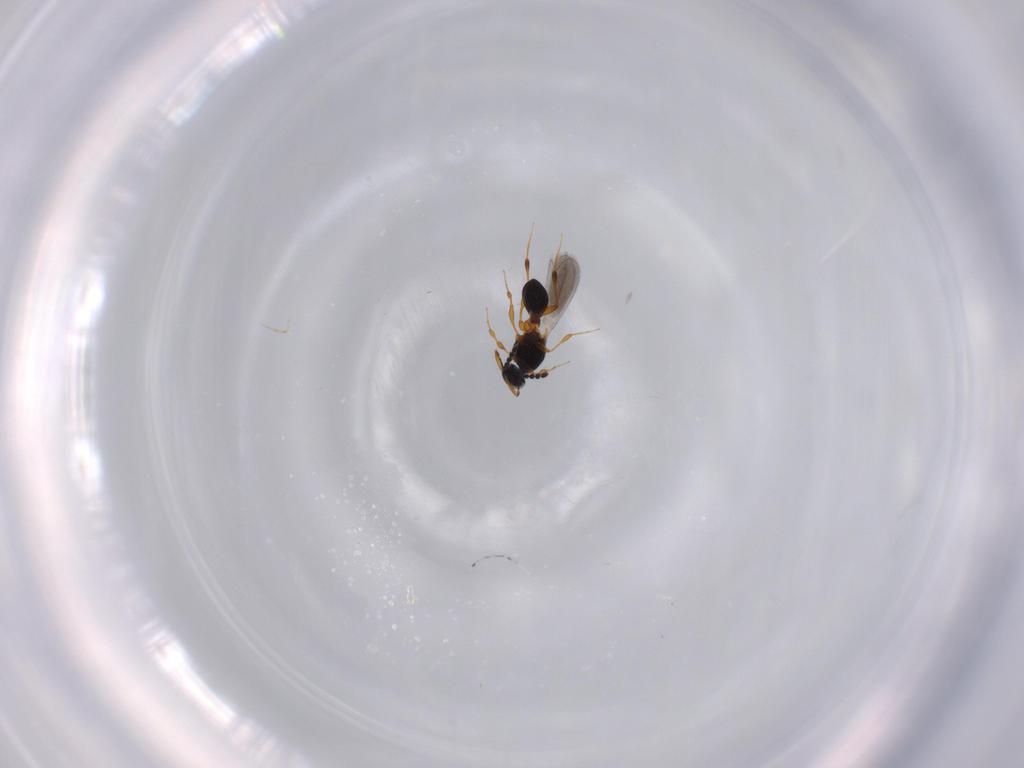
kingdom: Animalia
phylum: Arthropoda
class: Insecta
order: Hymenoptera
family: Platygastridae
